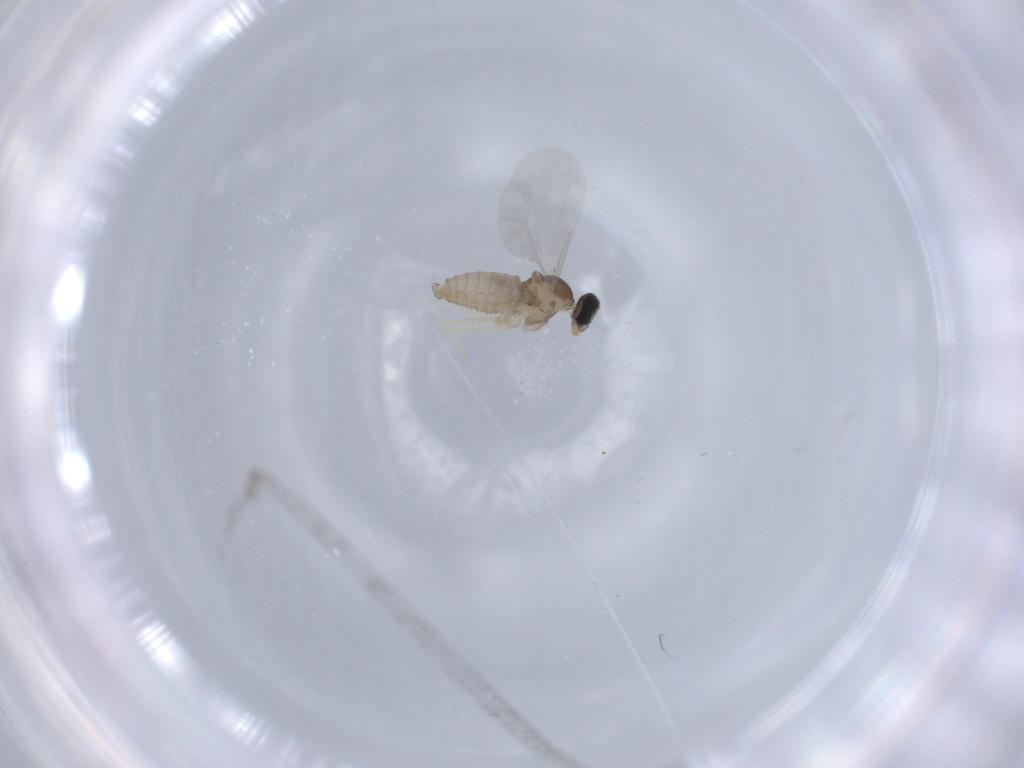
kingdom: Animalia
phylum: Arthropoda
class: Insecta
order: Diptera
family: Cecidomyiidae
